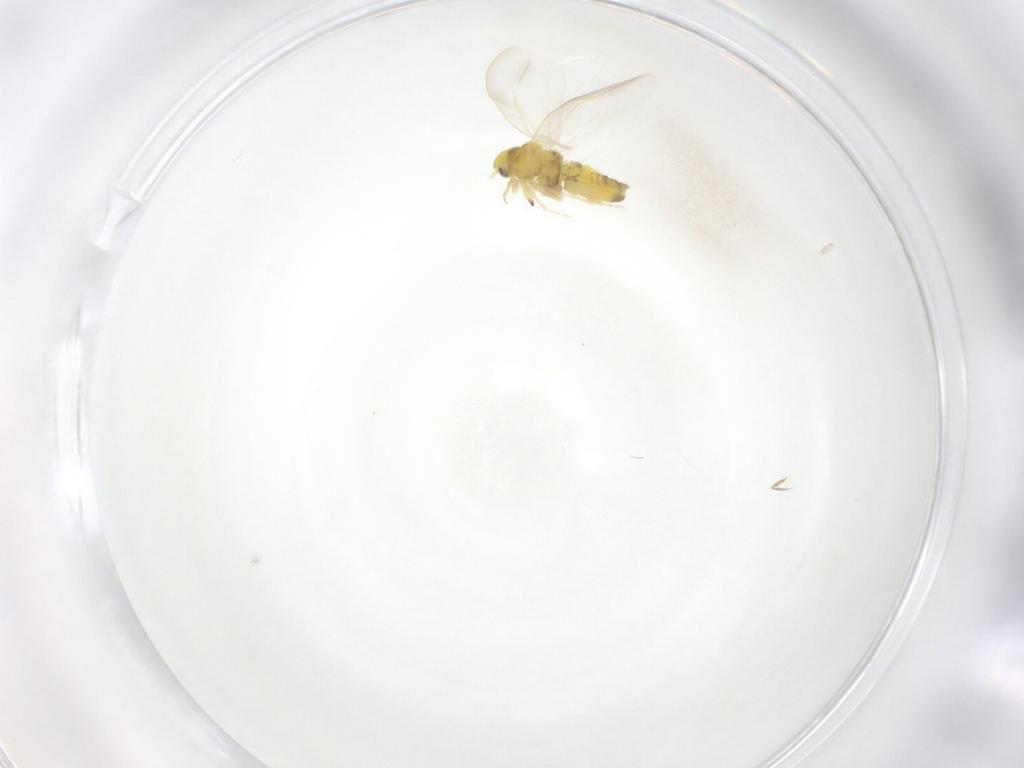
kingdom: Animalia
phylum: Arthropoda
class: Insecta
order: Hemiptera
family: Aleyrodidae
